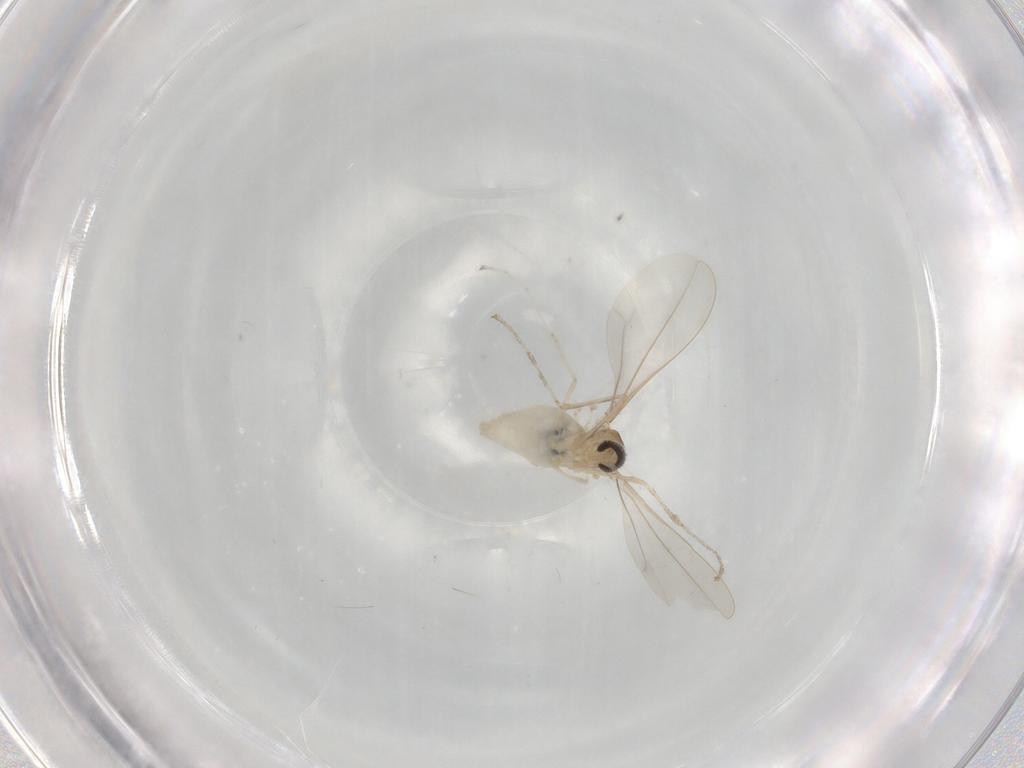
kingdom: Animalia
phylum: Arthropoda
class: Insecta
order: Diptera
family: Cecidomyiidae
